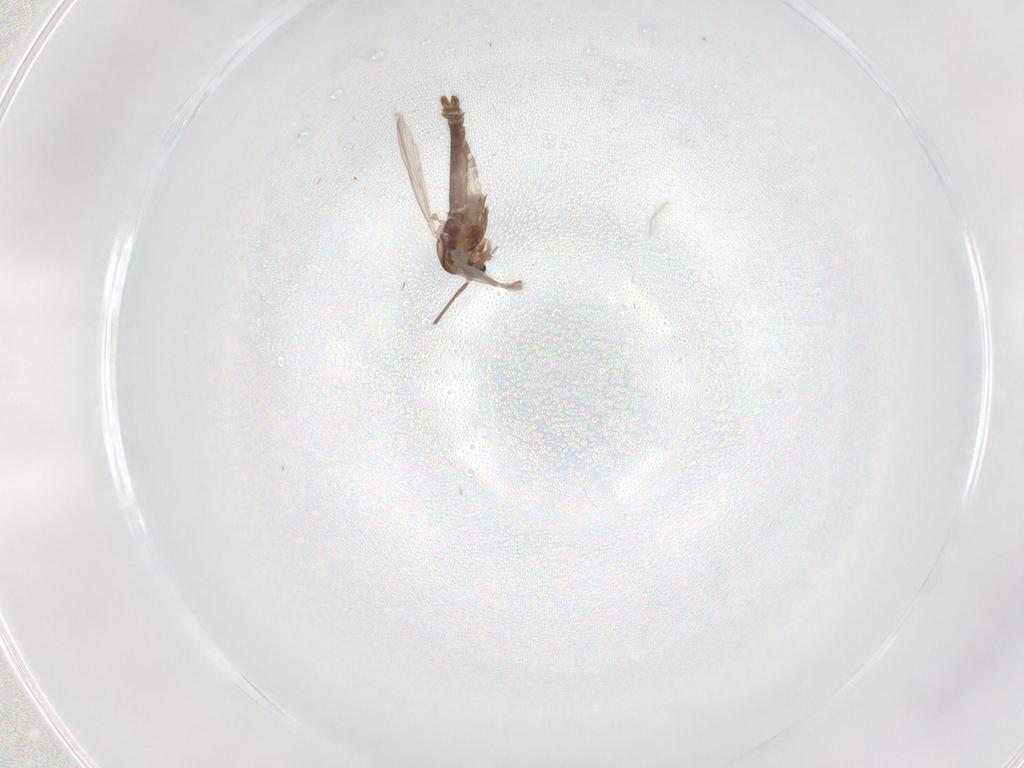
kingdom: Animalia
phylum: Arthropoda
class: Insecta
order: Diptera
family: Chironomidae
